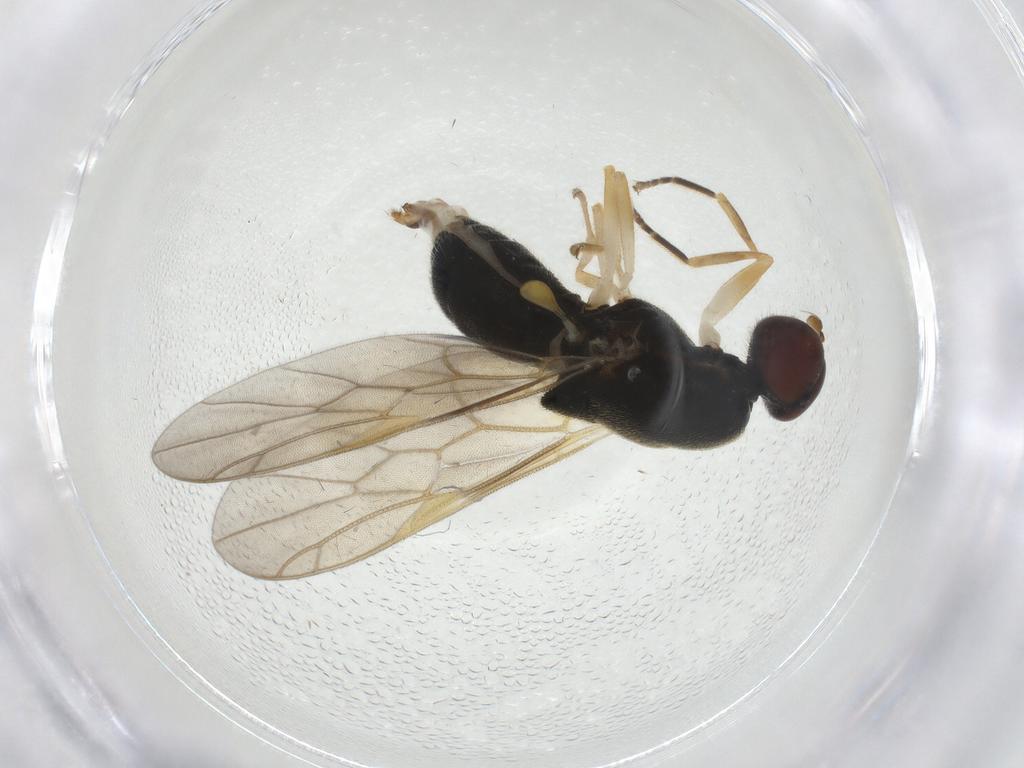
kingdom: Animalia
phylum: Arthropoda
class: Insecta
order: Diptera
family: Stratiomyidae
